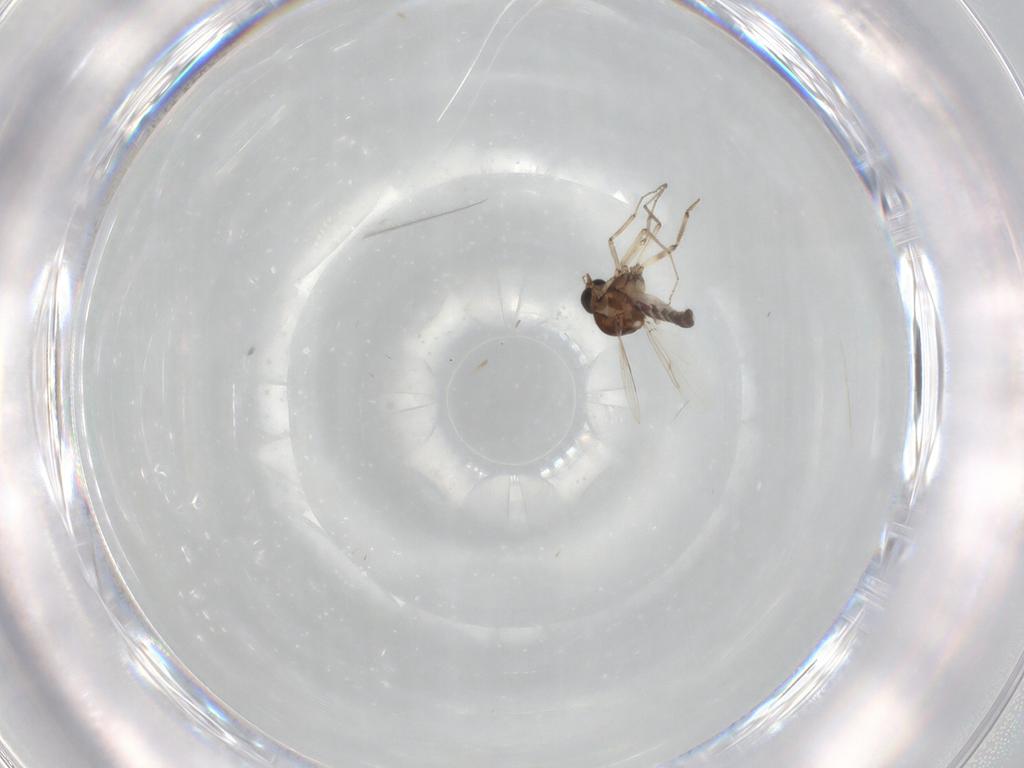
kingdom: Animalia
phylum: Arthropoda
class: Insecta
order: Diptera
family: Ceratopogonidae
